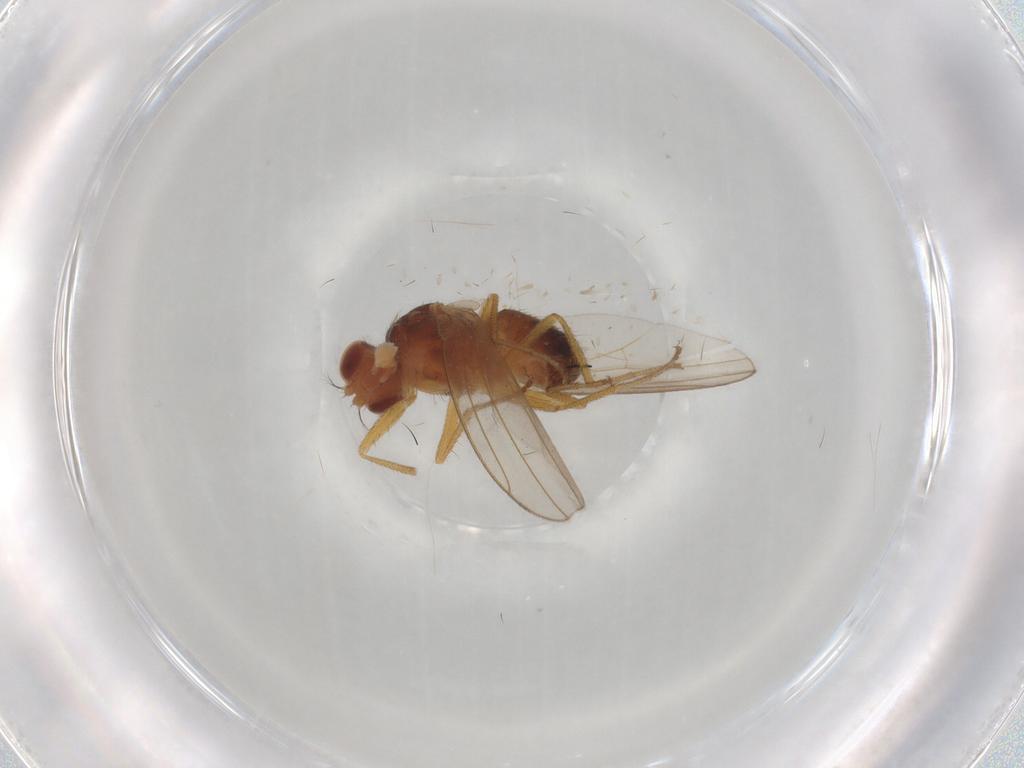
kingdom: Animalia
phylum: Arthropoda
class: Insecta
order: Diptera
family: Drosophilidae
